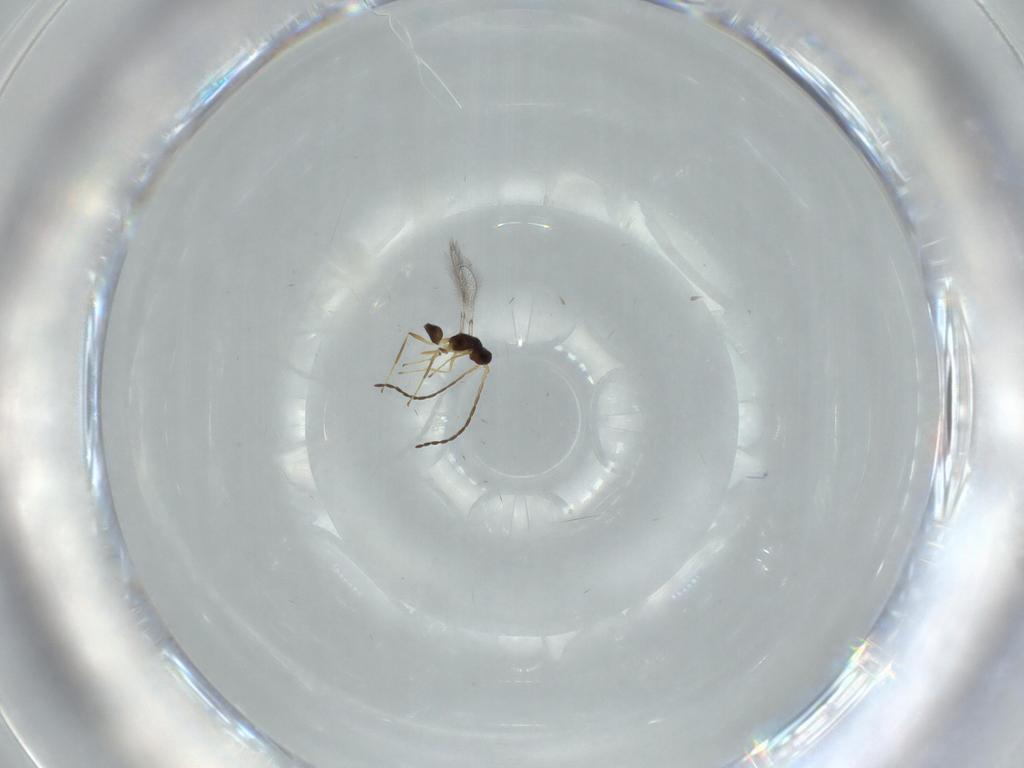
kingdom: Animalia
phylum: Arthropoda
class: Insecta
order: Hymenoptera
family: Mymaridae
